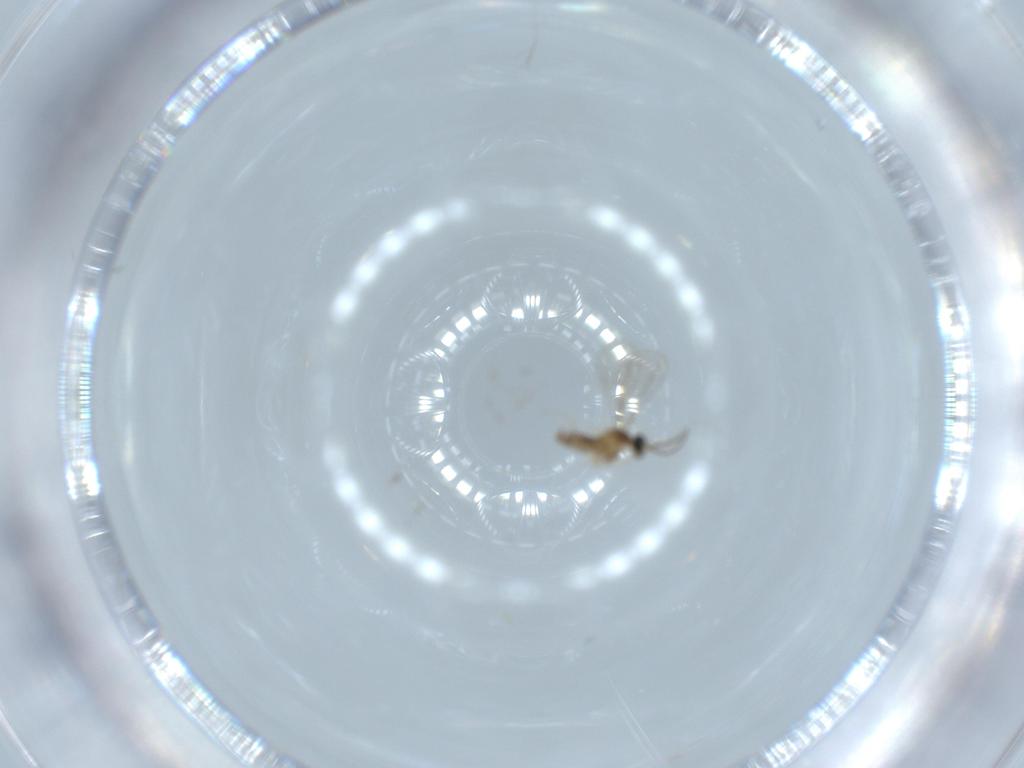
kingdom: Animalia
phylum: Arthropoda
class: Insecta
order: Diptera
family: Cecidomyiidae
